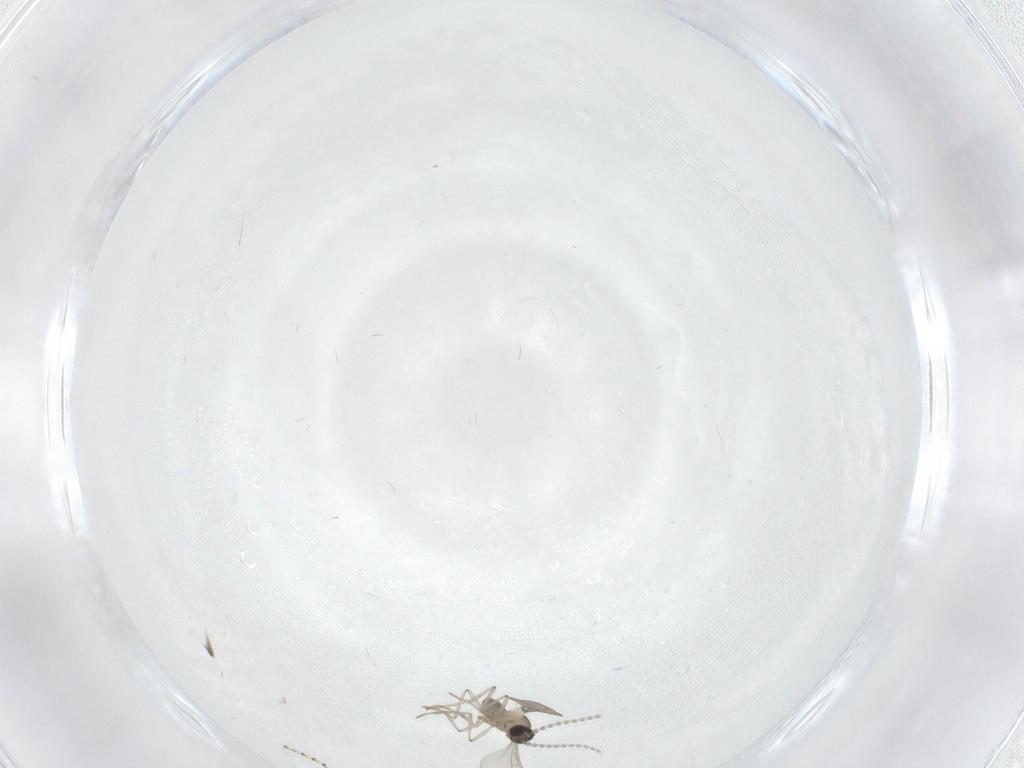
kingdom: Animalia
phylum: Arthropoda
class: Insecta
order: Diptera
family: Cecidomyiidae
